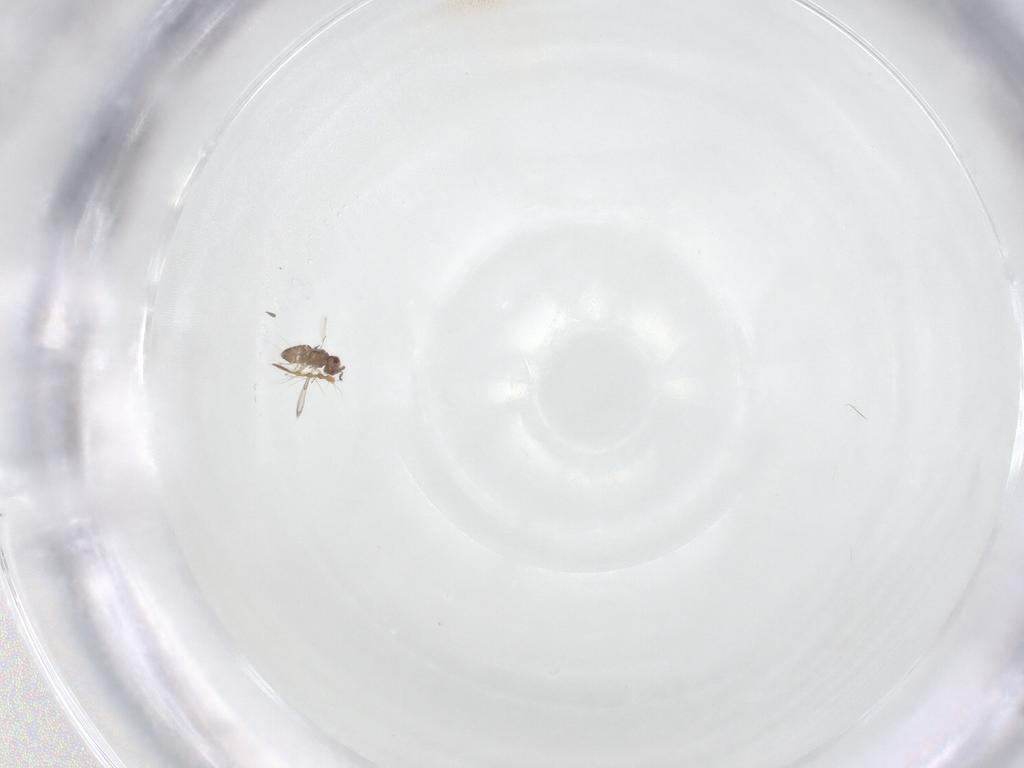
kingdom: Animalia
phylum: Arthropoda
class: Insecta
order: Hymenoptera
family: Trichogrammatidae
